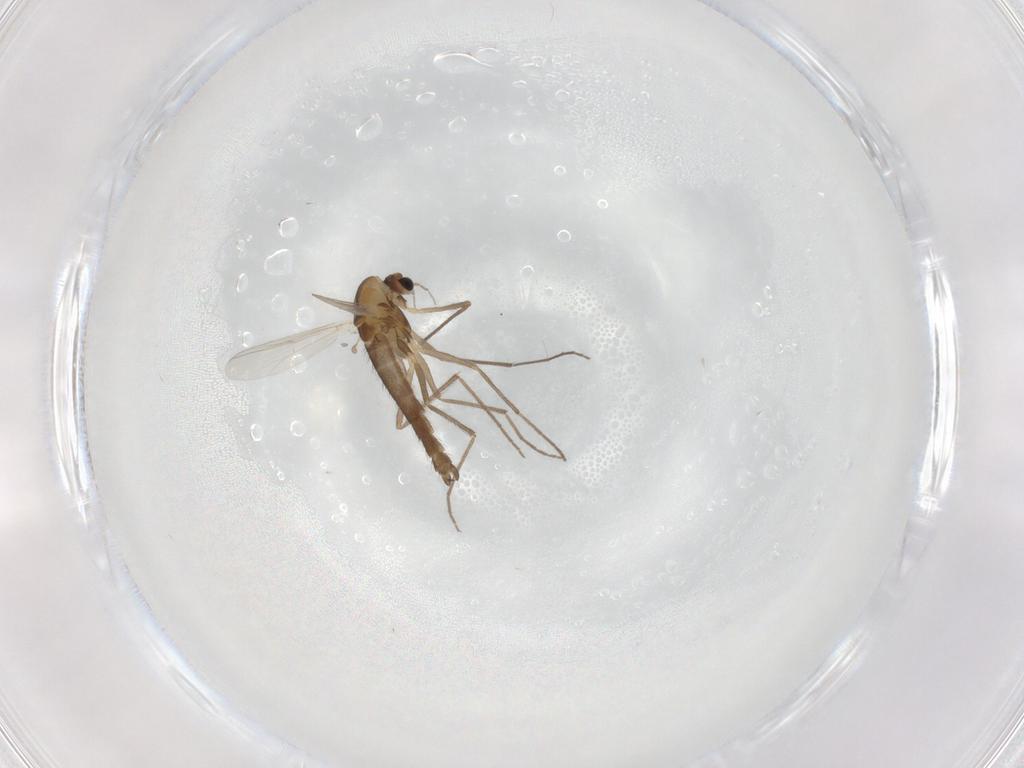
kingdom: Animalia
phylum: Arthropoda
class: Insecta
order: Diptera
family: Chironomidae
